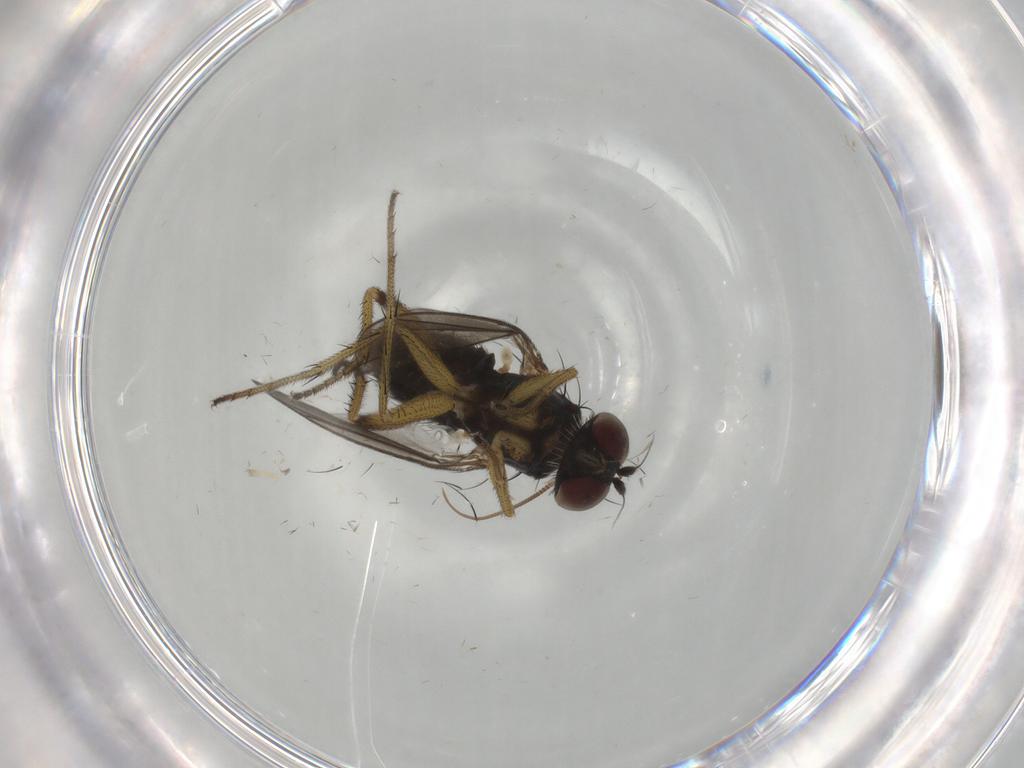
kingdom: Animalia
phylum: Arthropoda
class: Insecta
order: Diptera
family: Dolichopodidae
